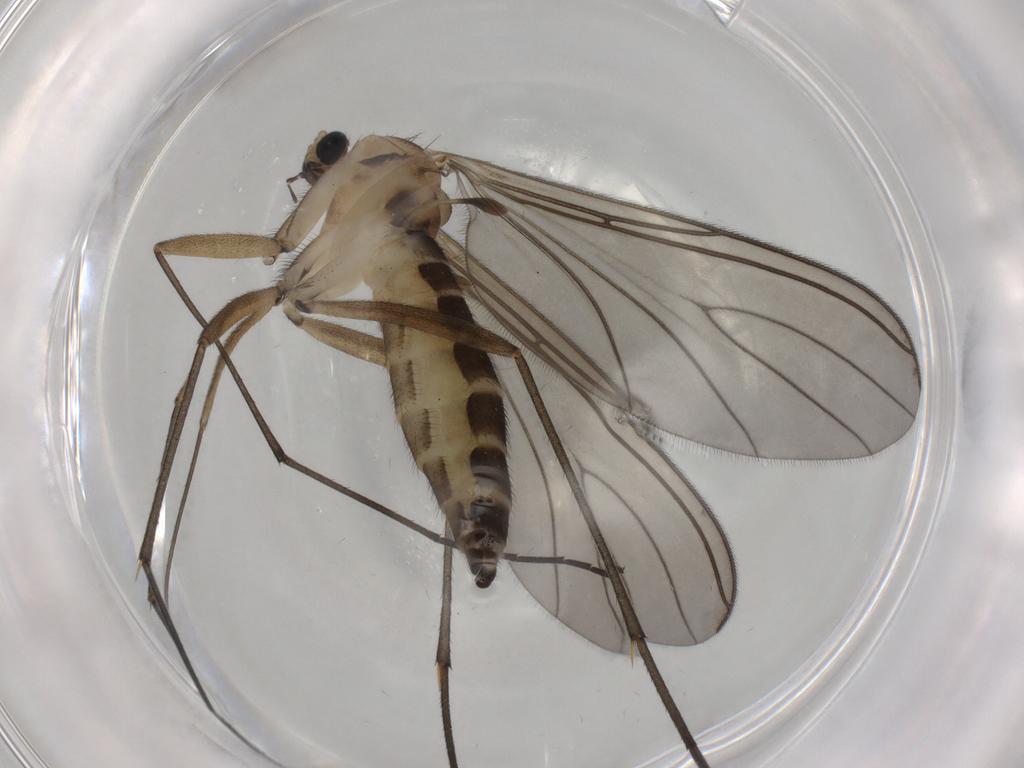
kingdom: Animalia
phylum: Arthropoda
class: Insecta
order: Diptera
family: Sciaridae
